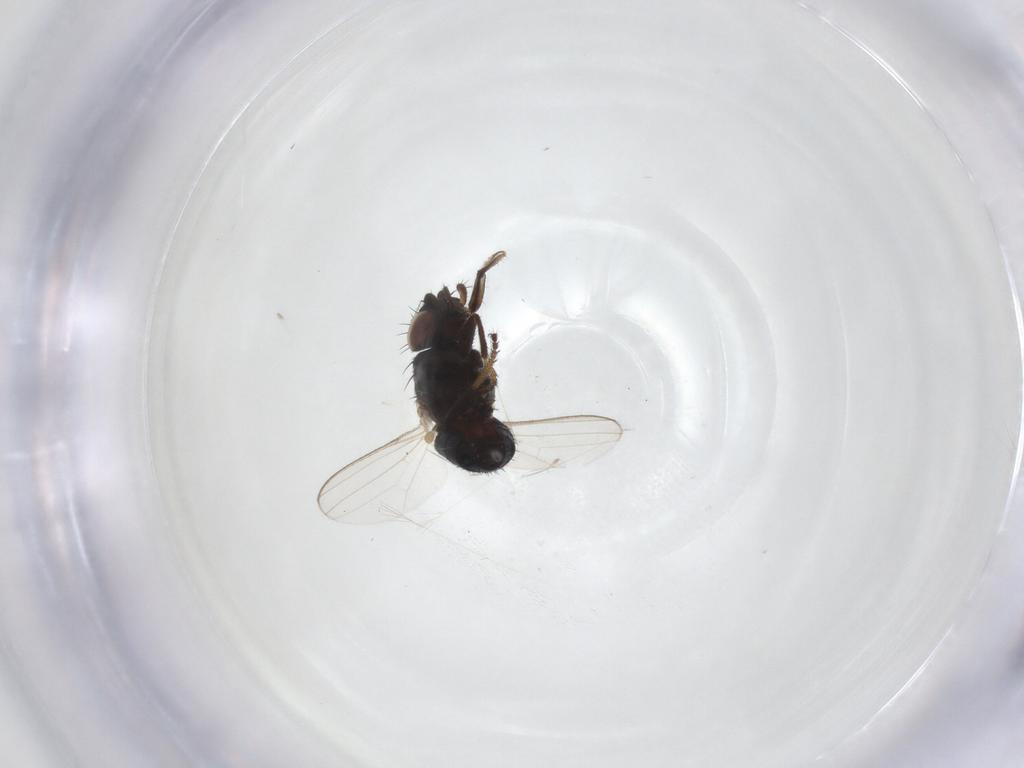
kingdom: Animalia
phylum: Arthropoda
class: Insecta
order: Diptera
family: Milichiidae
